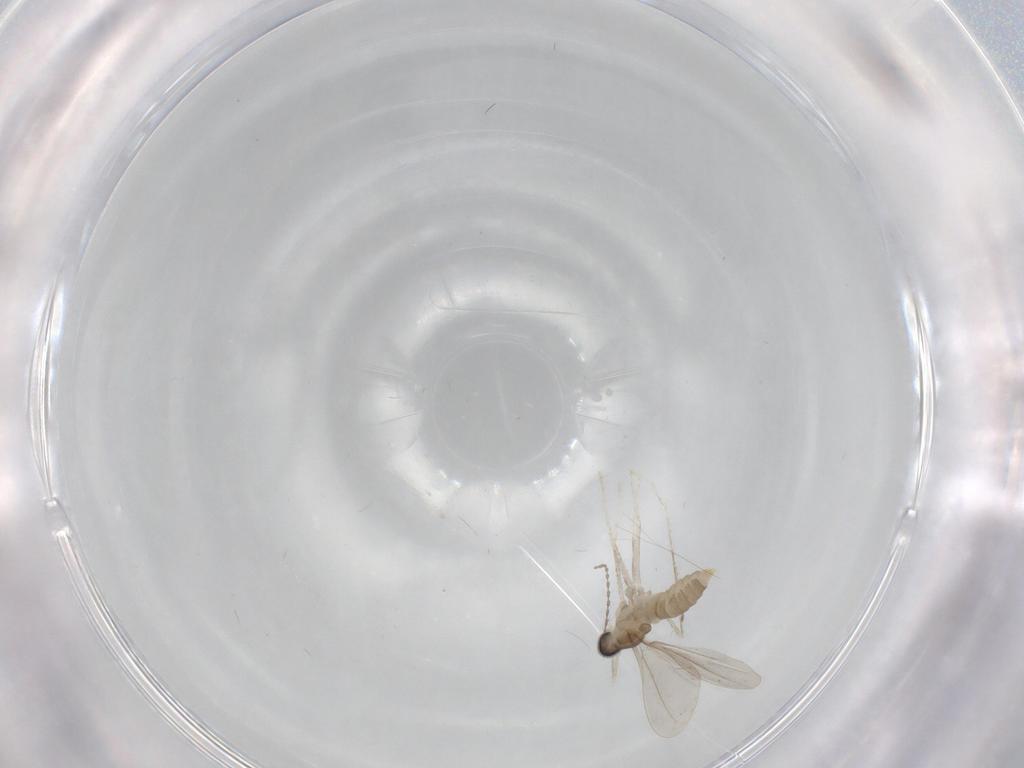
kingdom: Animalia
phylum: Arthropoda
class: Insecta
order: Diptera
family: Cecidomyiidae
